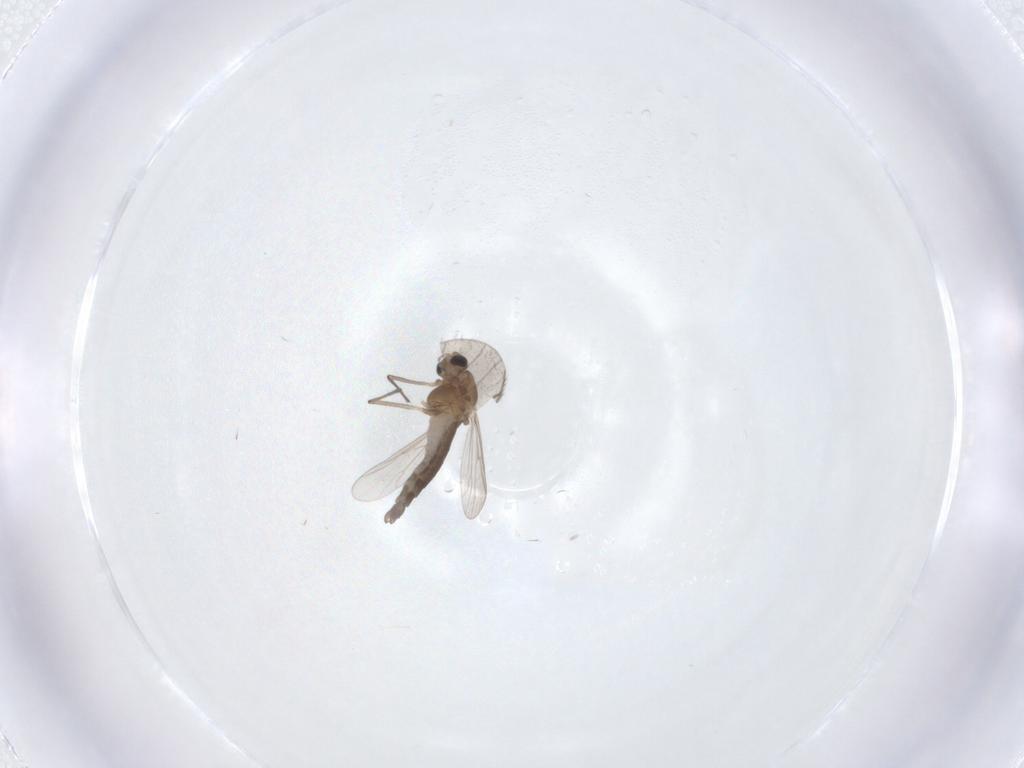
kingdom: Animalia
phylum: Arthropoda
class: Insecta
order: Diptera
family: Chironomidae
